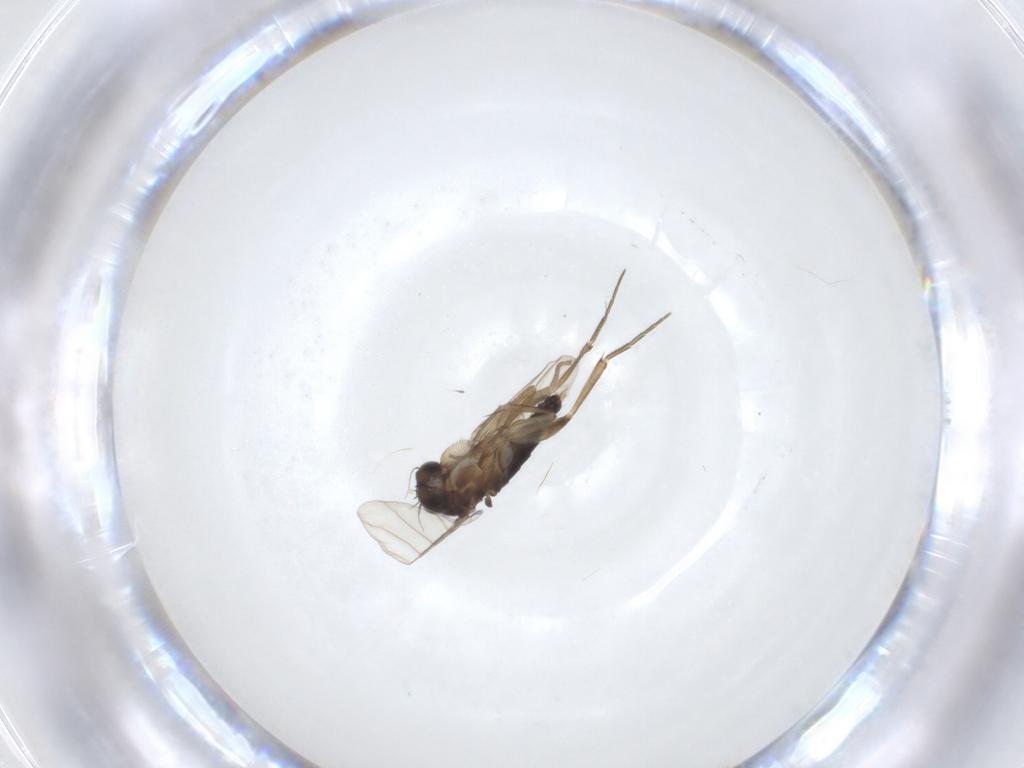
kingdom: Animalia
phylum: Arthropoda
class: Insecta
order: Diptera
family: Phoridae
